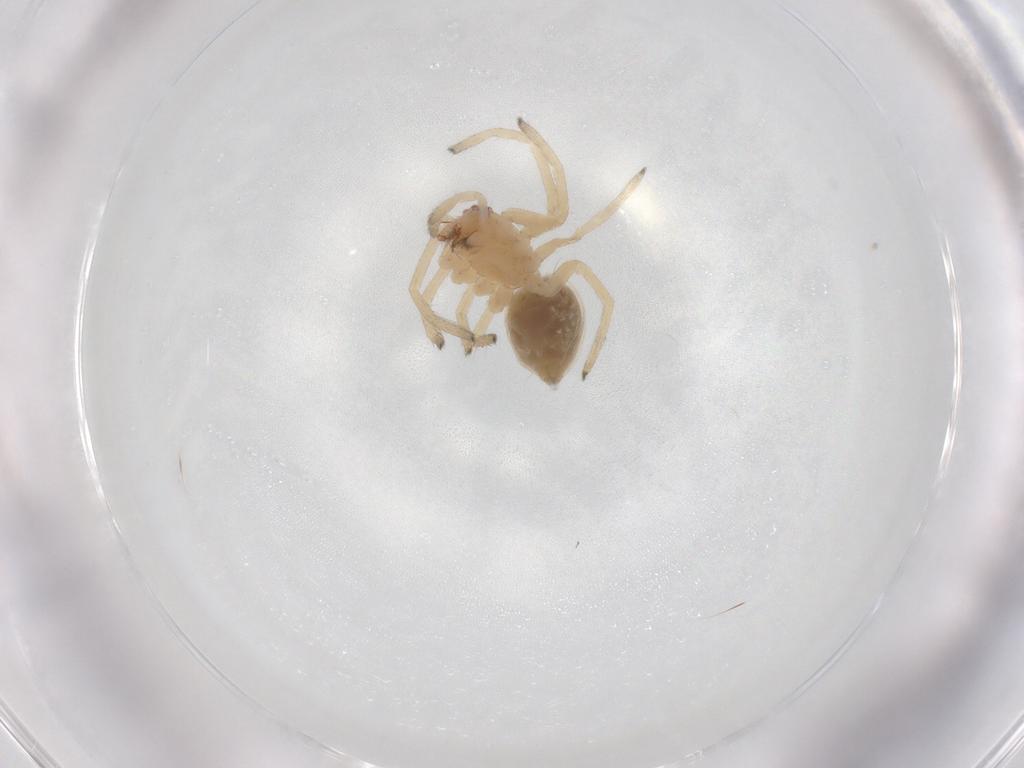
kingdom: Animalia
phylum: Arthropoda
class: Arachnida
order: Araneae
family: Cheiracanthiidae
